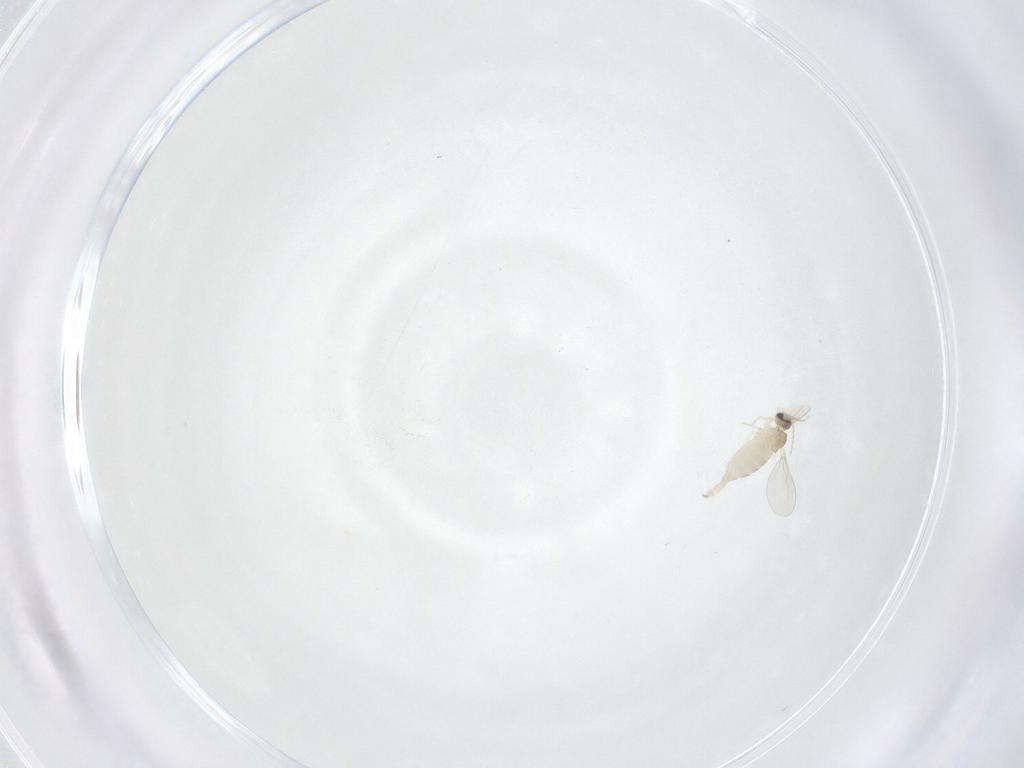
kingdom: Animalia
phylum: Arthropoda
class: Insecta
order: Diptera
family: Cecidomyiidae
